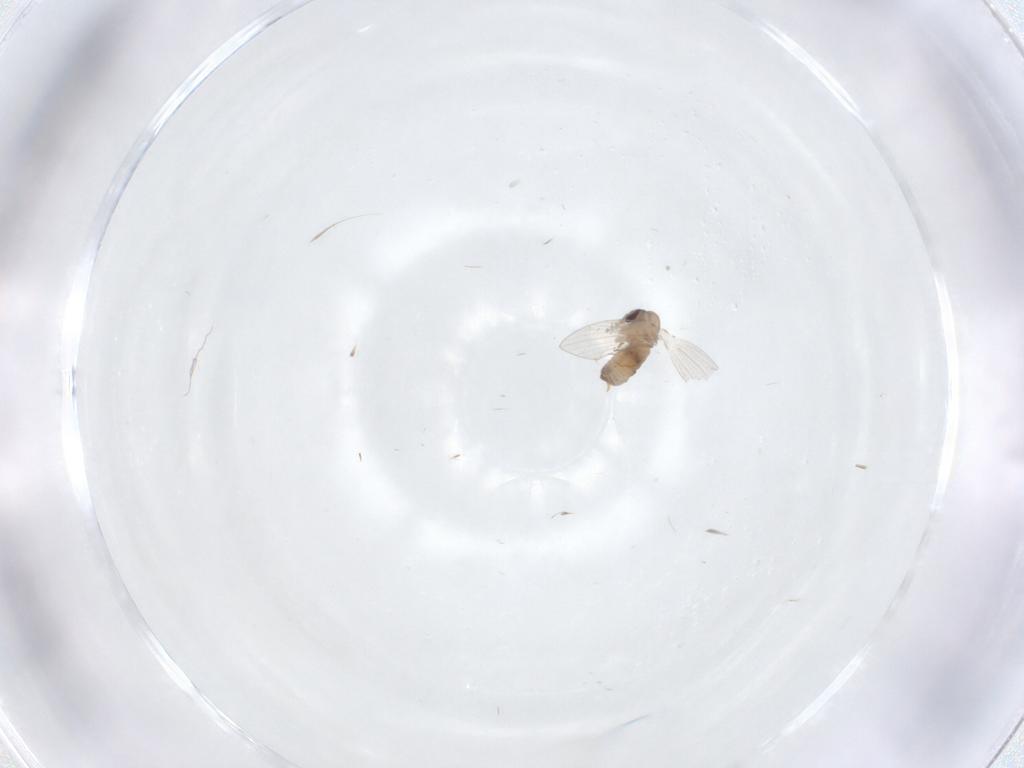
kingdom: Animalia
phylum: Arthropoda
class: Insecta
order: Diptera
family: Psychodidae
